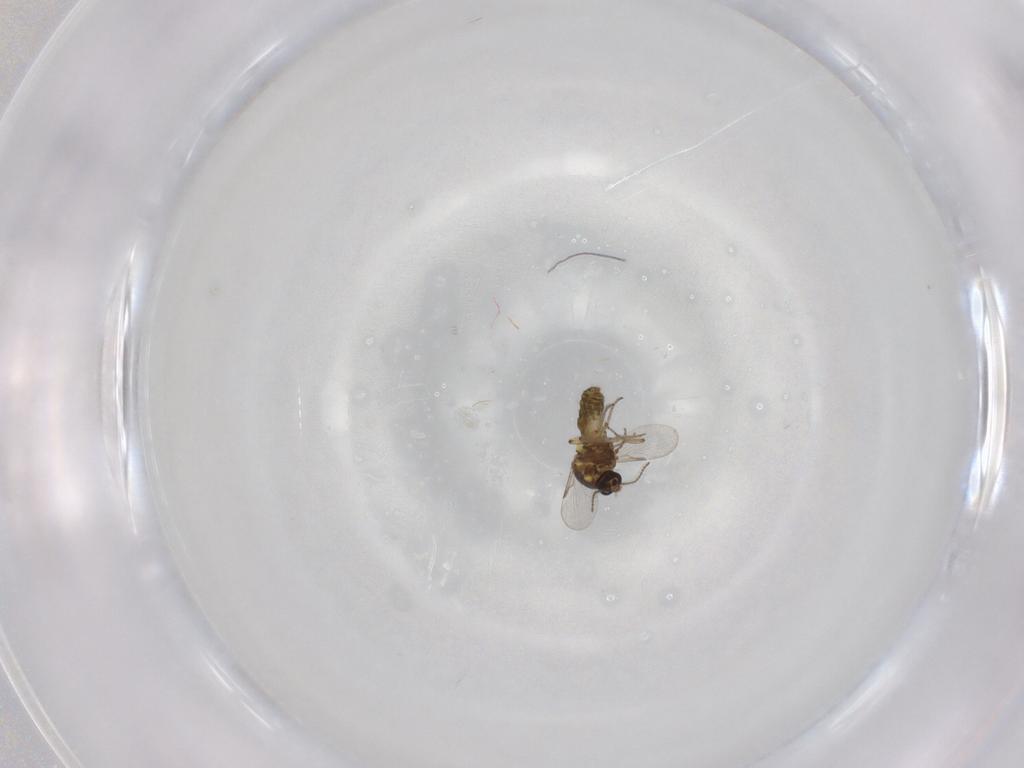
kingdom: Animalia
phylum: Arthropoda
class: Insecta
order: Diptera
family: Ceratopogonidae
